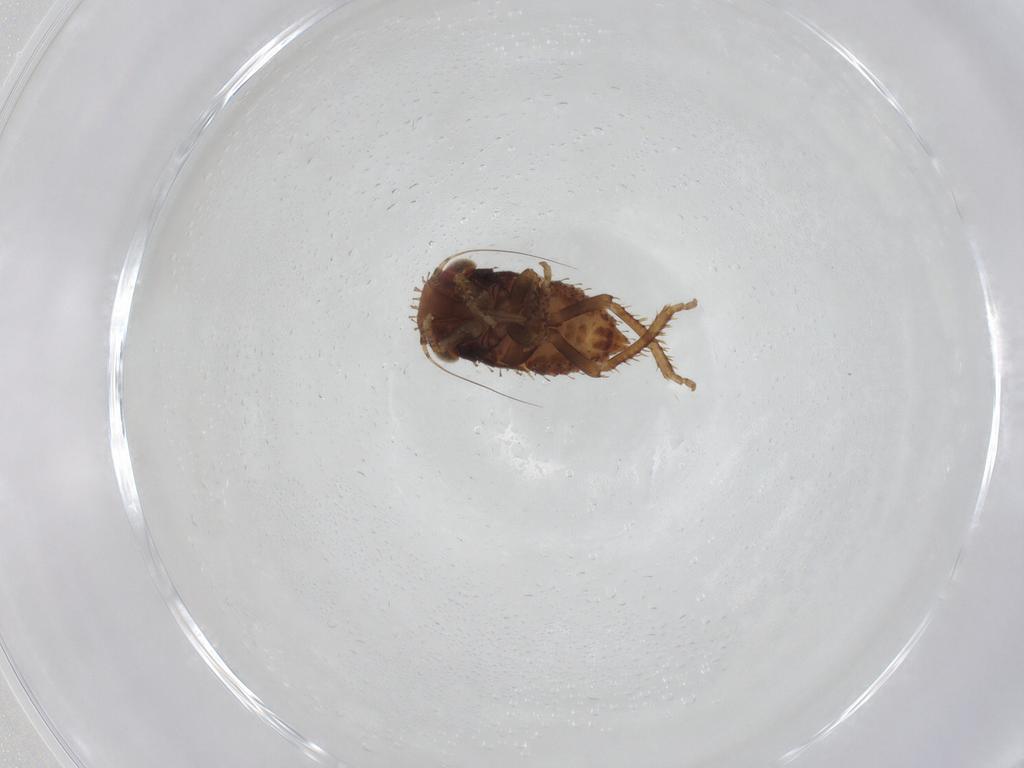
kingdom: Animalia
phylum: Arthropoda
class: Insecta
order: Hemiptera
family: Cicadellidae
